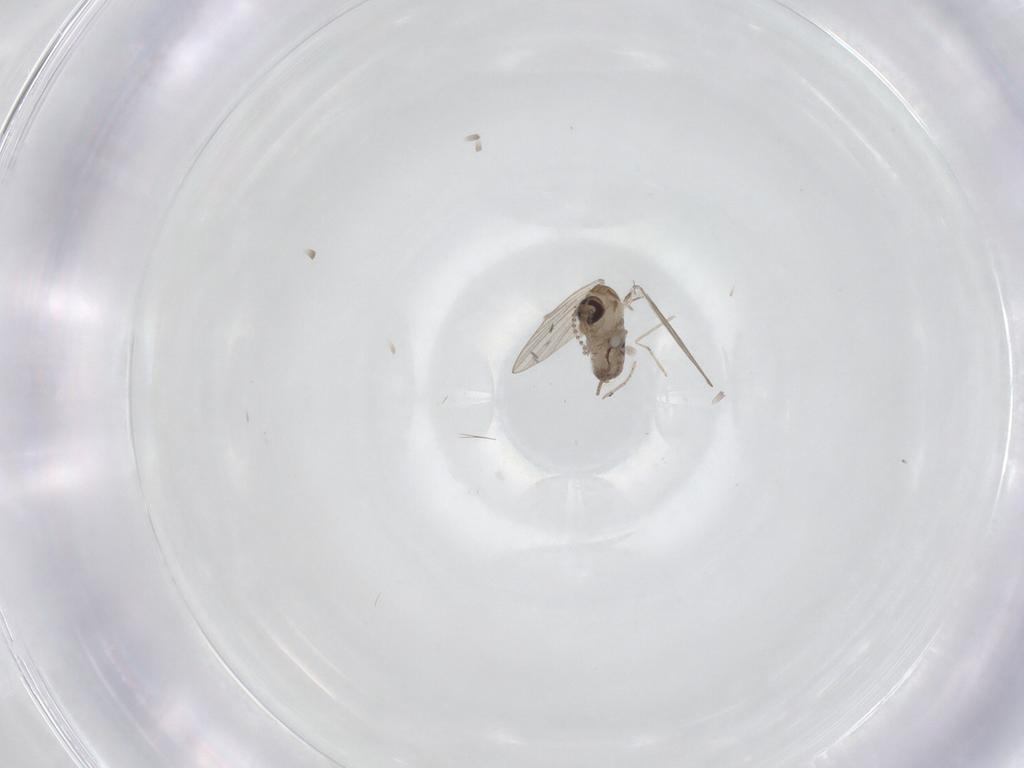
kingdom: Animalia
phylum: Arthropoda
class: Insecta
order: Diptera
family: Psychodidae
